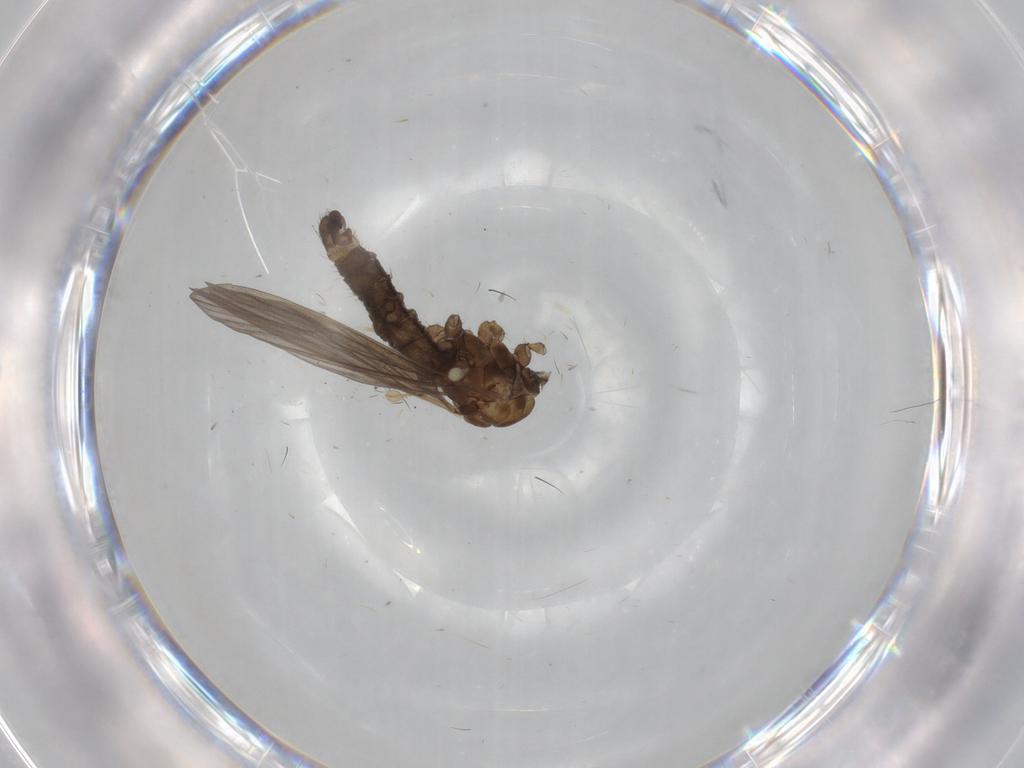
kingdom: Animalia
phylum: Arthropoda
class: Insecta
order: Diptera
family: Limoniidae
